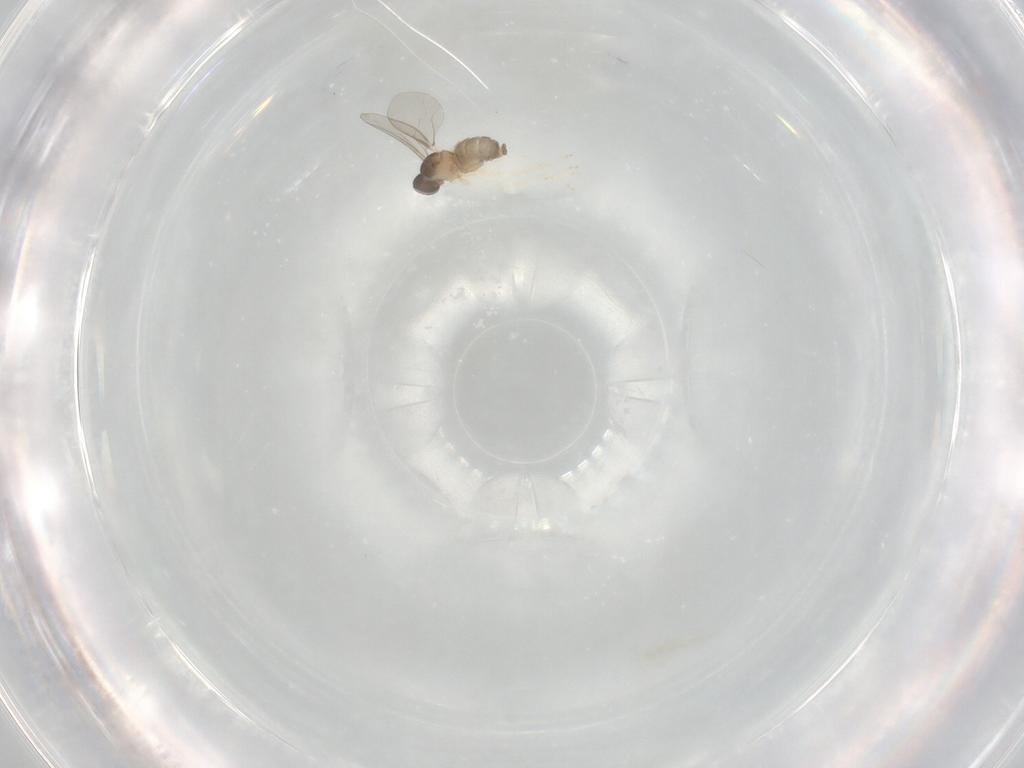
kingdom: Animalia
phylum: Arthropoda
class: Insecta
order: Diptera
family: Cecidomyiidae
